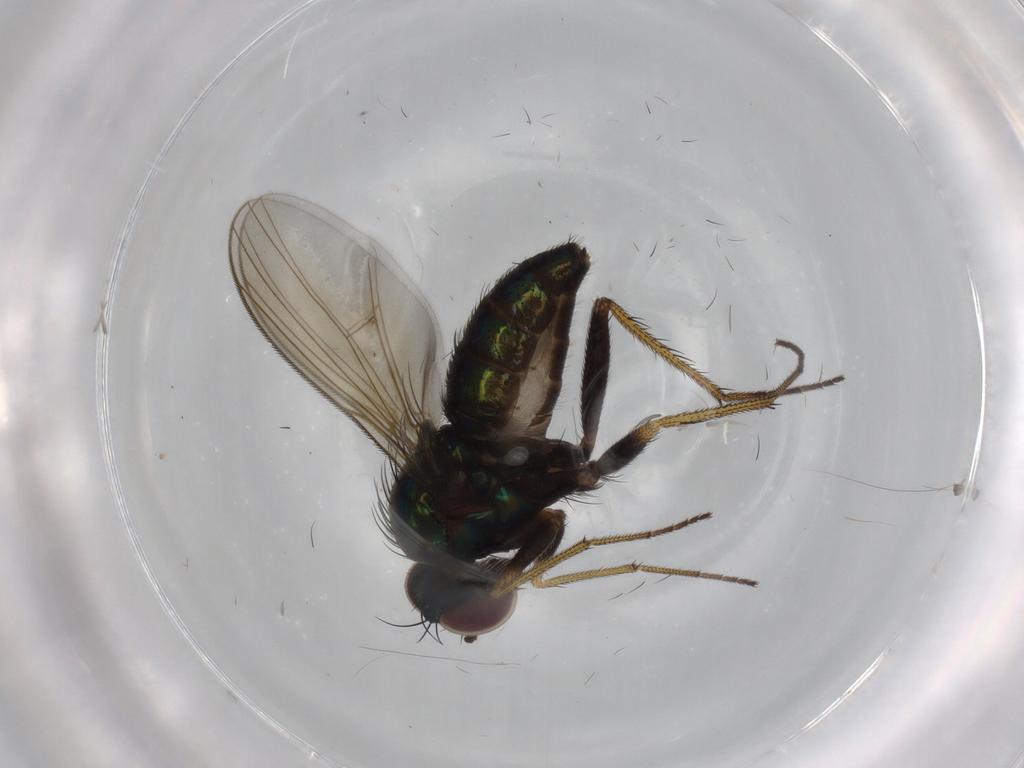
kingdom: Animalia
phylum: Arthropoda
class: Insecta
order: Diptera
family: Dolichopodidae
